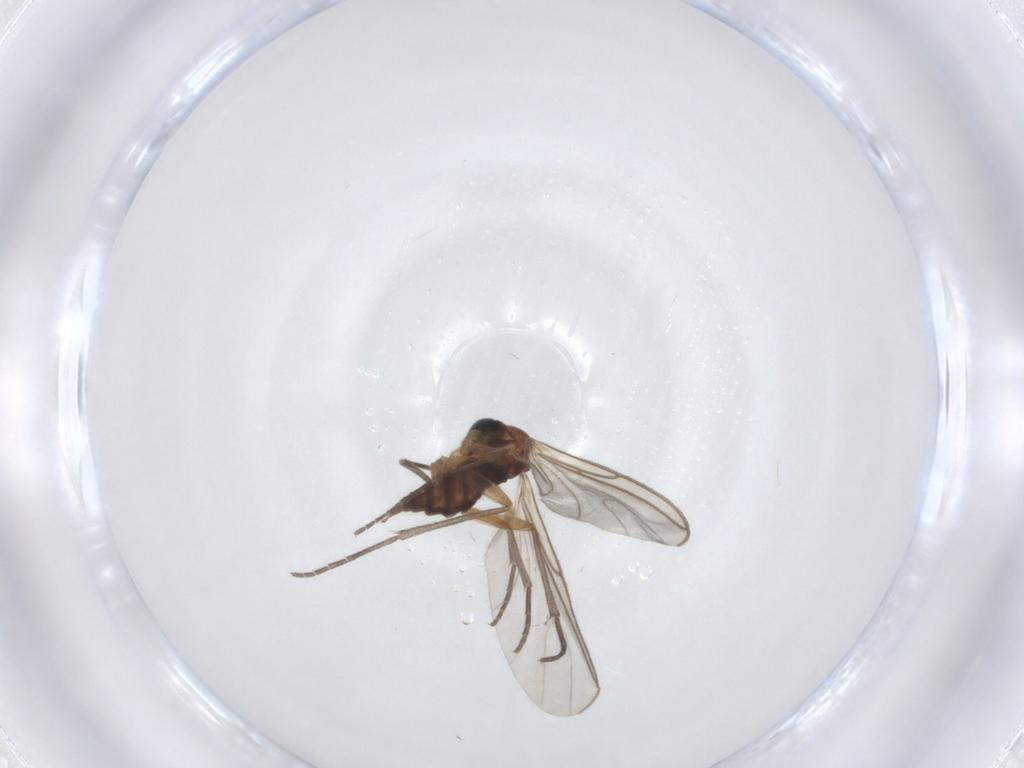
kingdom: Animalia
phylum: Arthropoda
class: Insecta
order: Diptera
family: Sciaridae
